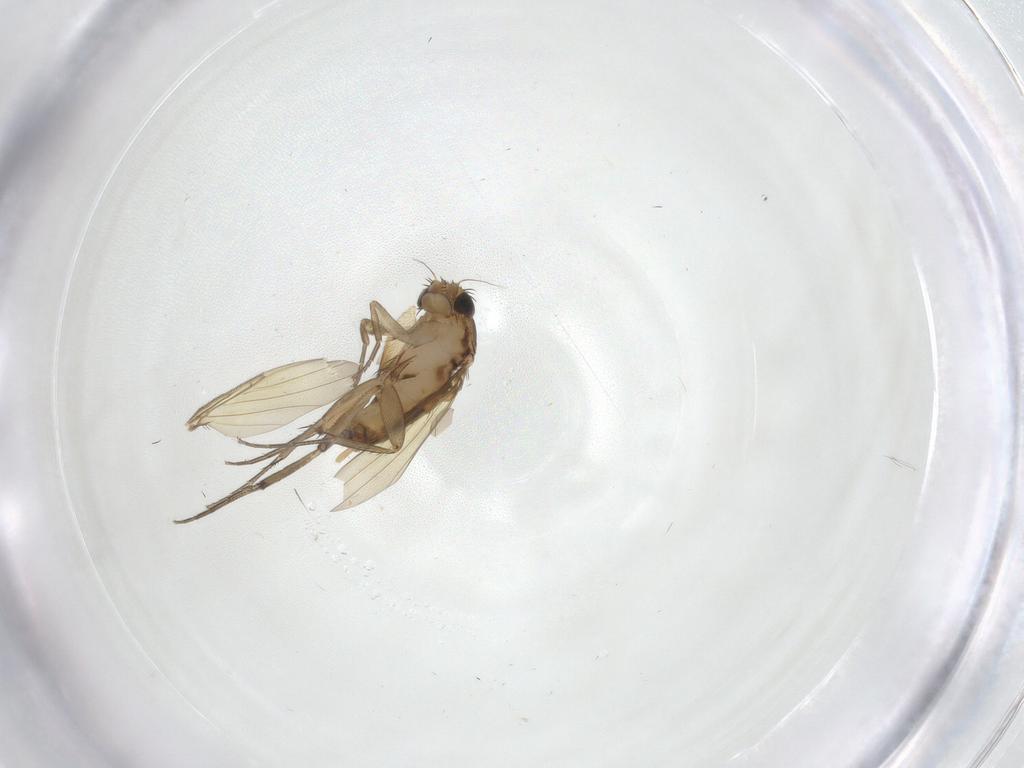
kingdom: Animalia
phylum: Arthropoda
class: Insecta
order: Diptera
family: Phoridae
